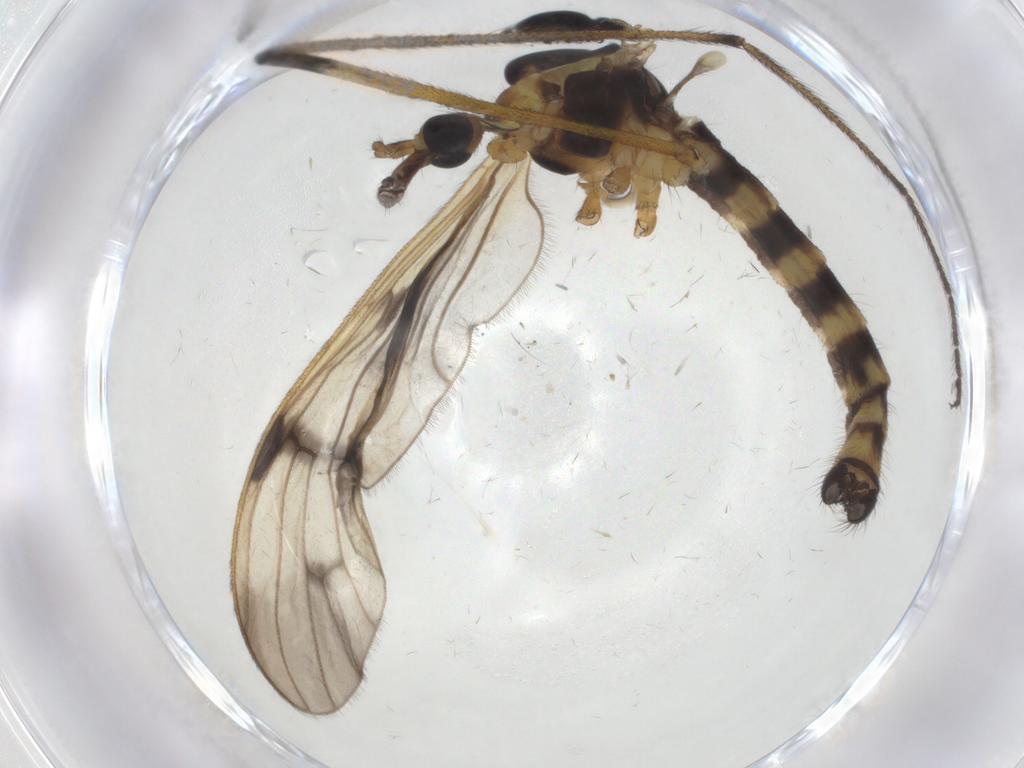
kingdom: Animalia
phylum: Arthropoda
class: Insecta
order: Diptera
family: Limoniidae
